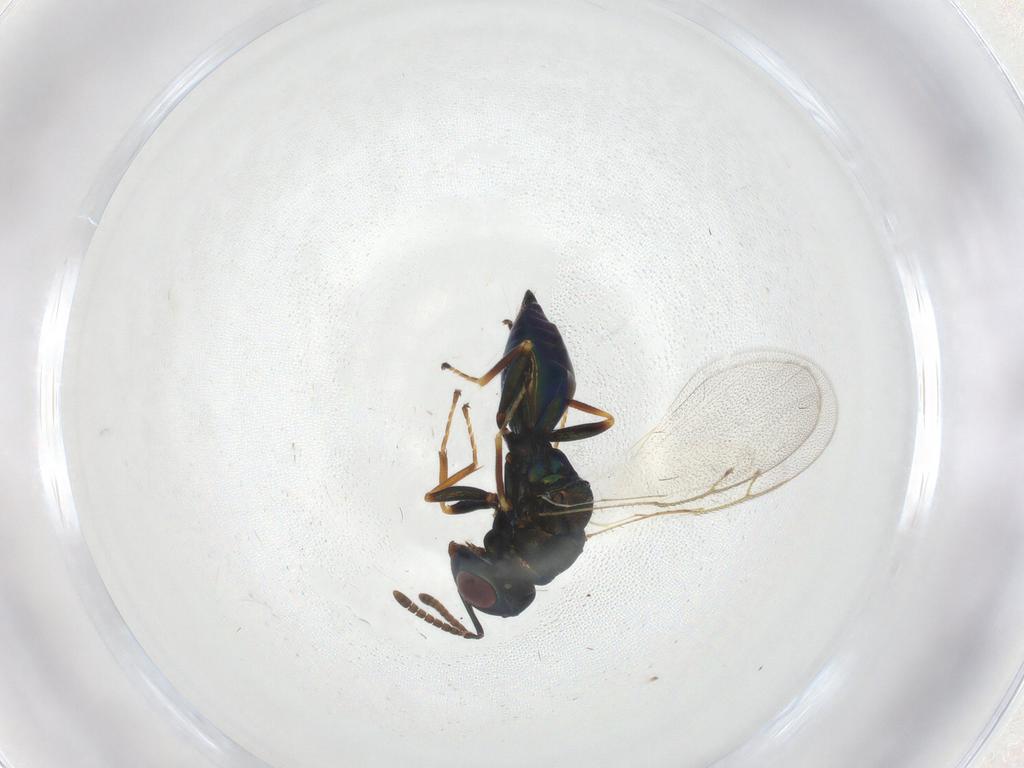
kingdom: Animalia
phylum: Arthropoda
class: Insecta
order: Hymenoptera
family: Pteromalidae
